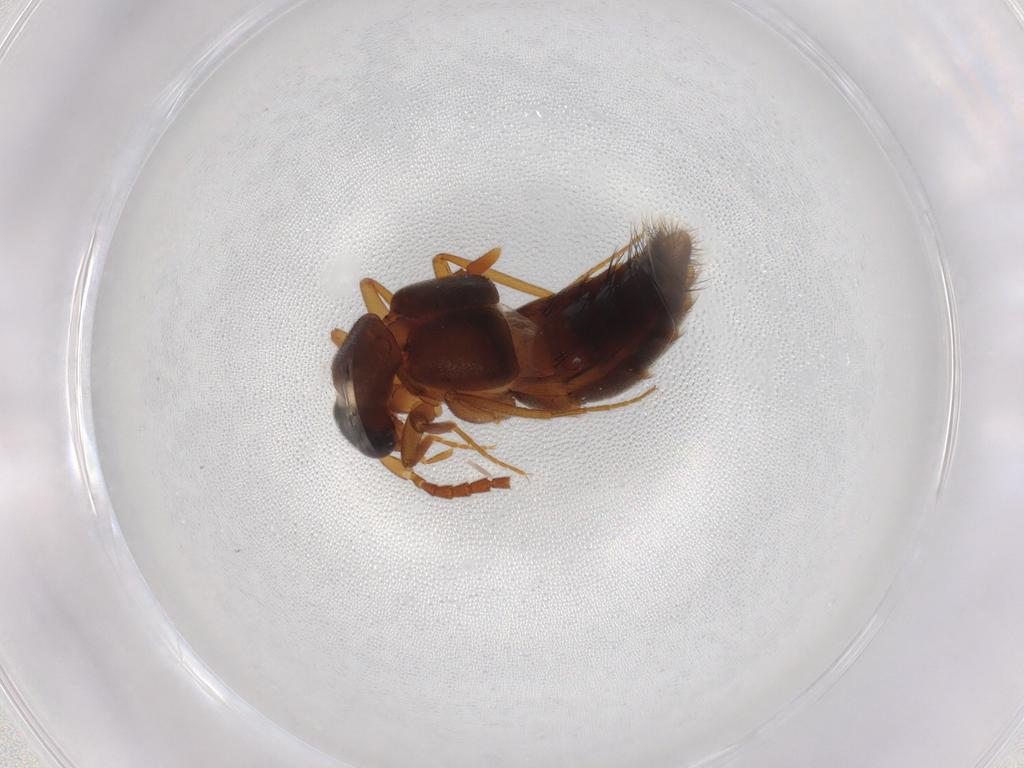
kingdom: Animalia
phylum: Arthropoda
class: Insecta
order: Coleoptera
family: Staphylinidae
